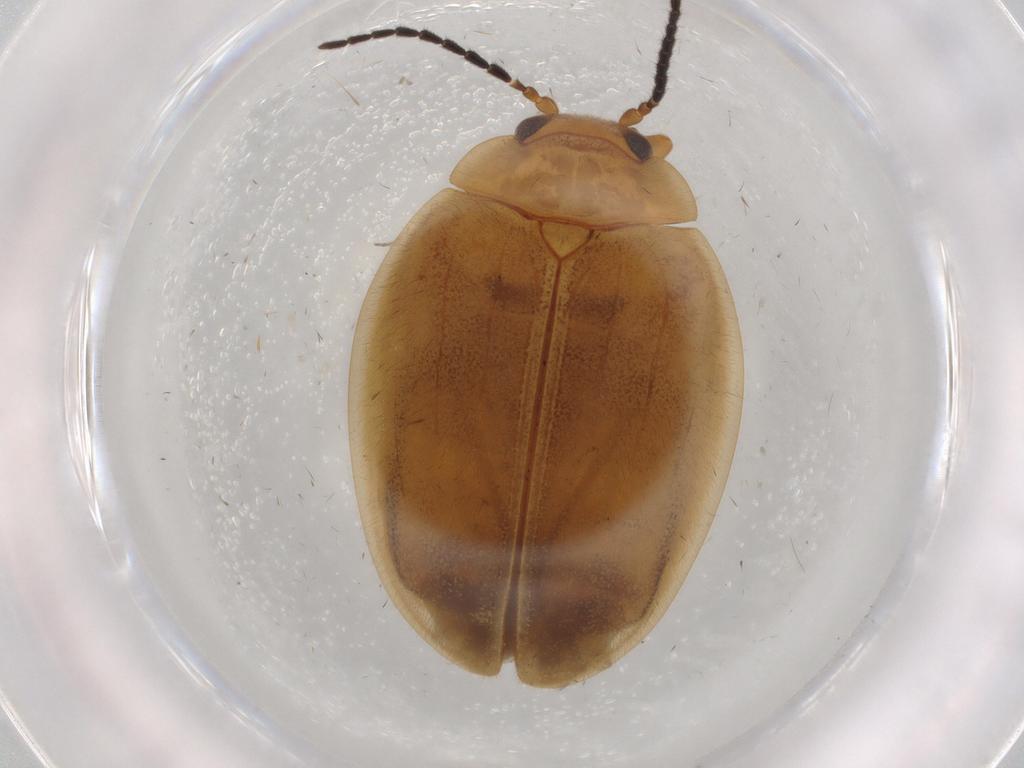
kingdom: Animalia
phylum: Arthropoda
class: Insecta
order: Coleoptera
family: Scirtidae
